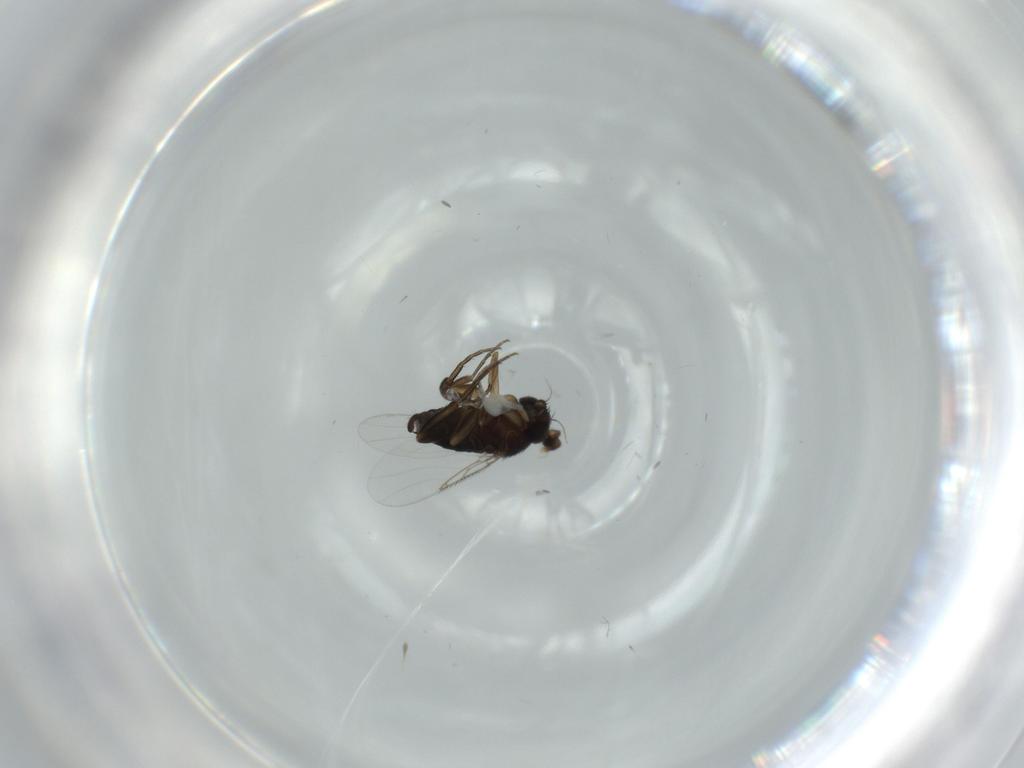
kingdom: Animalia
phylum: Arthropoda
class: Insecta
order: Diptera
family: Phoridae
